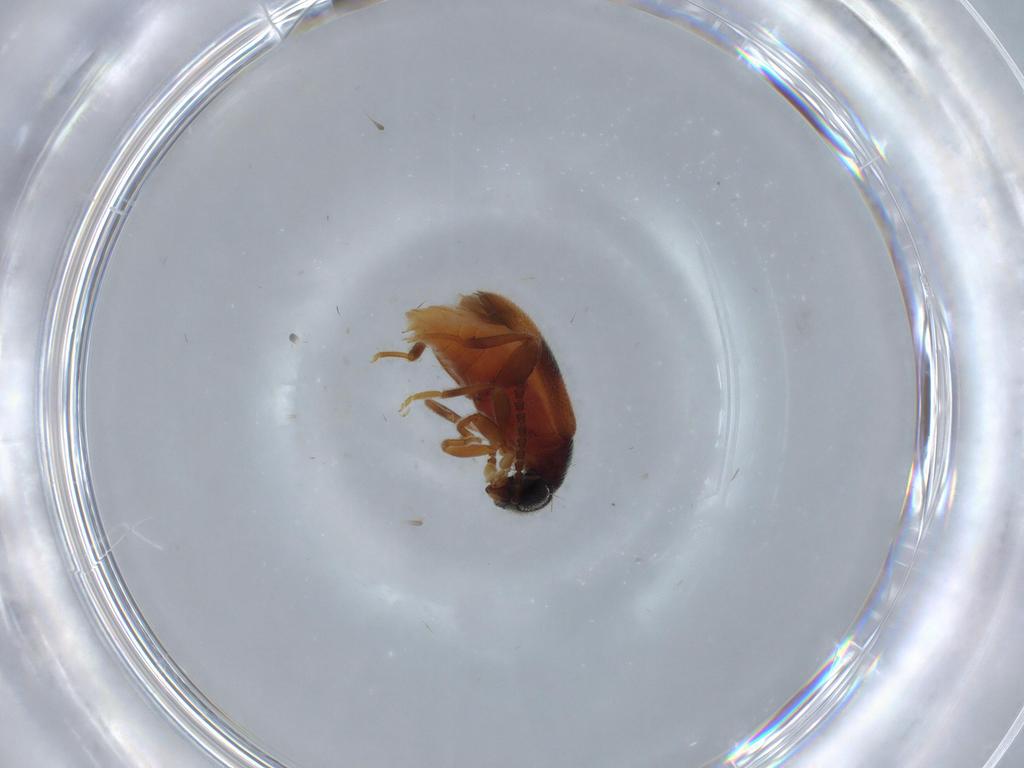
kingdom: Animalia
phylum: Arthropoda
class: Insecta
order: Coleoptera
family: Aderidae
